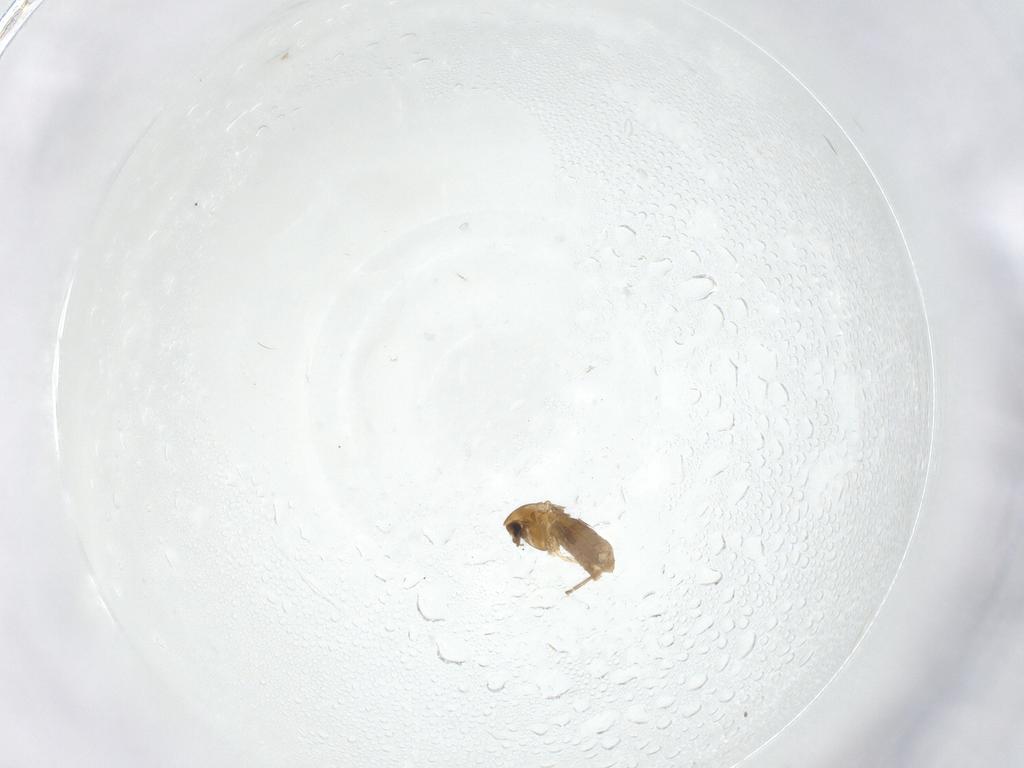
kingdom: Animalia
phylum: Arthropoda
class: Insecta
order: Diptera
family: Chironomidae
